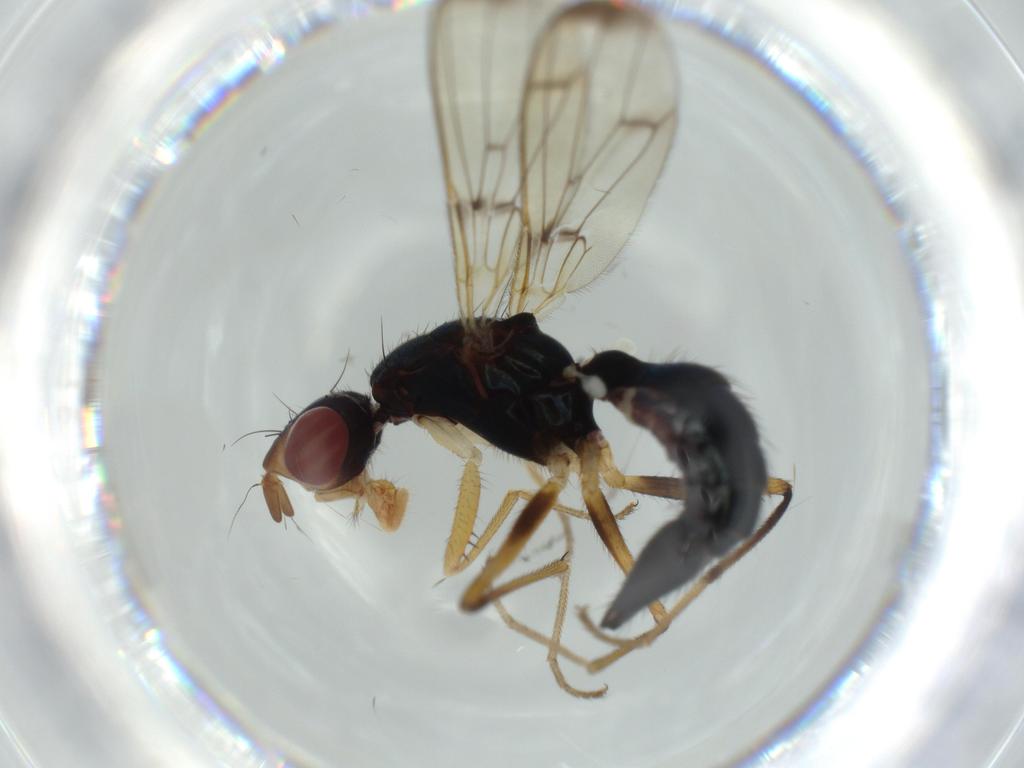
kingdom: Animalia
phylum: Arthropoda
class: Insecta
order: Diptera
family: Psychodidae
